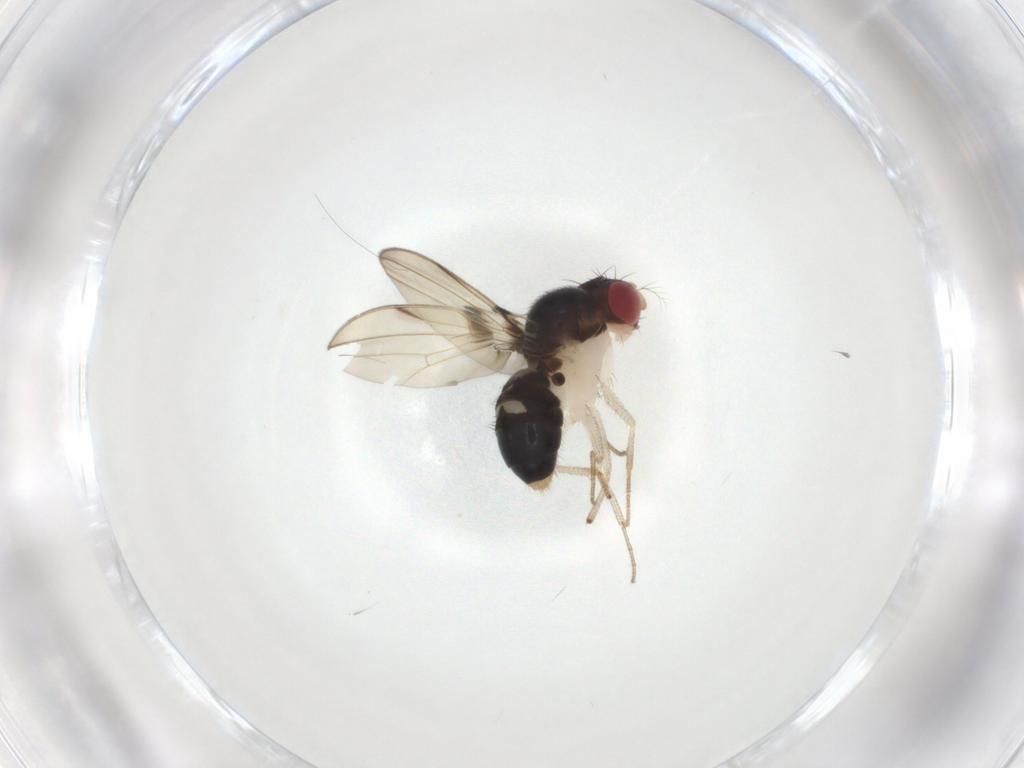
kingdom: Animalia
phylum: Arthropoda
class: Insecta
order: Diptera
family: Drosophilidae
